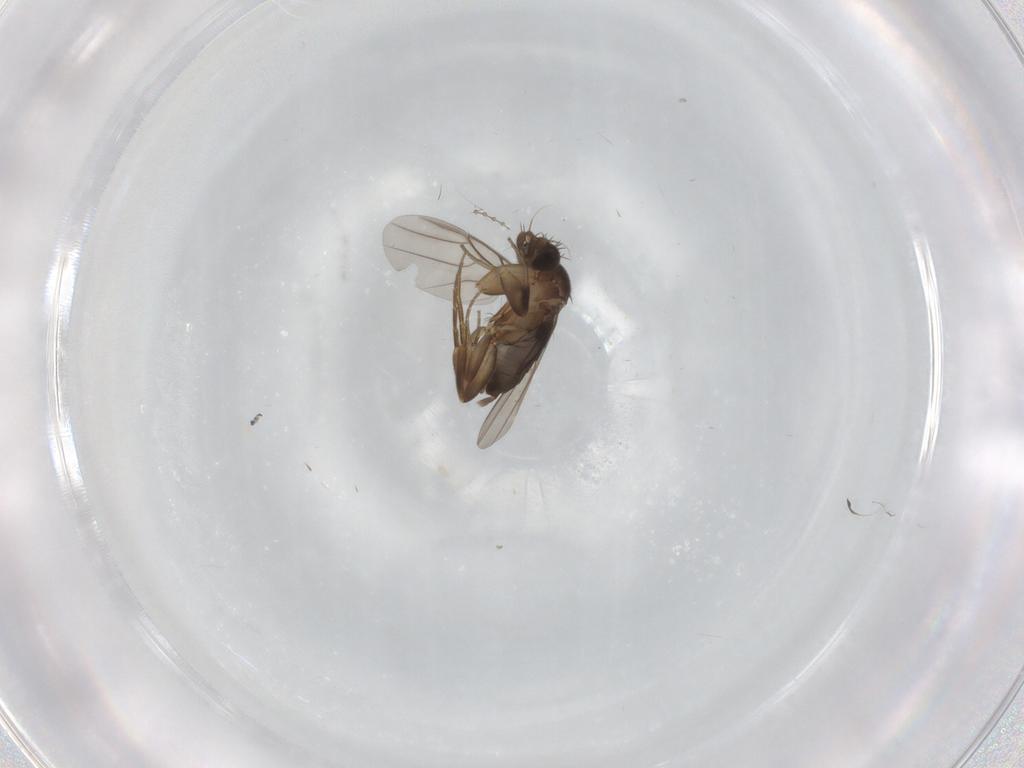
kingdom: Animalia
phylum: Arthropoda
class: Insecta
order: Diptera
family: Phoridae
